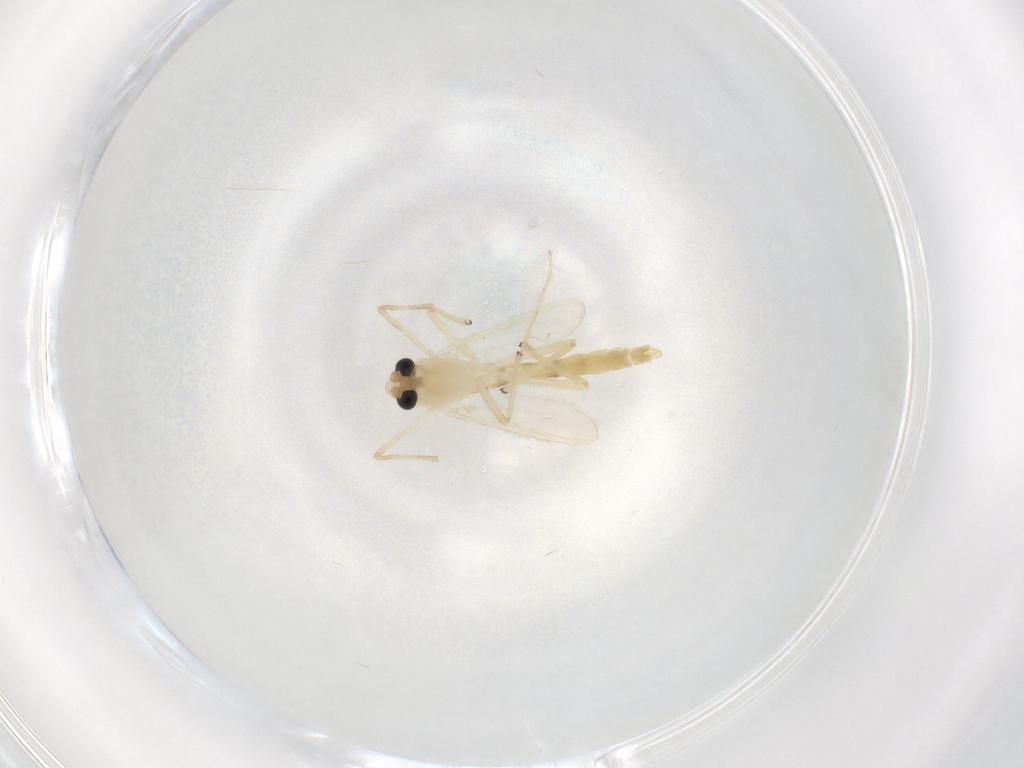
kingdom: Animalia
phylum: Arthropoda
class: Insecta
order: Diptera
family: Chironomidae
